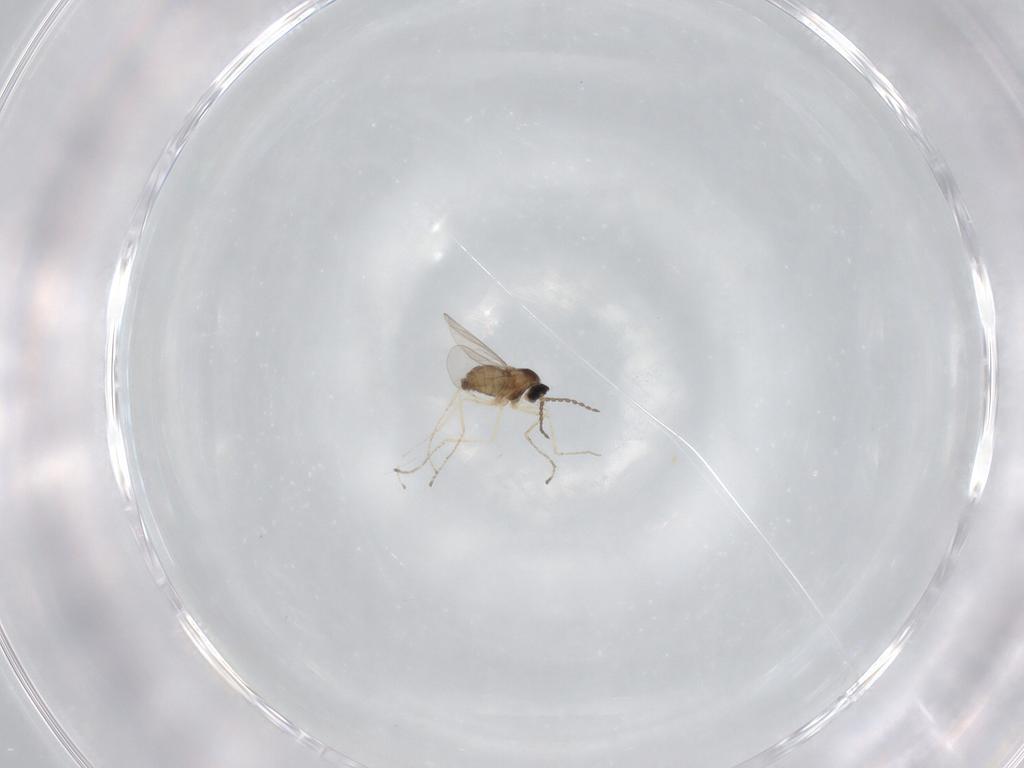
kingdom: Animalia
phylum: Arthropoda
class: Insecta
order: Diptera
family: Cecidomyiidae
